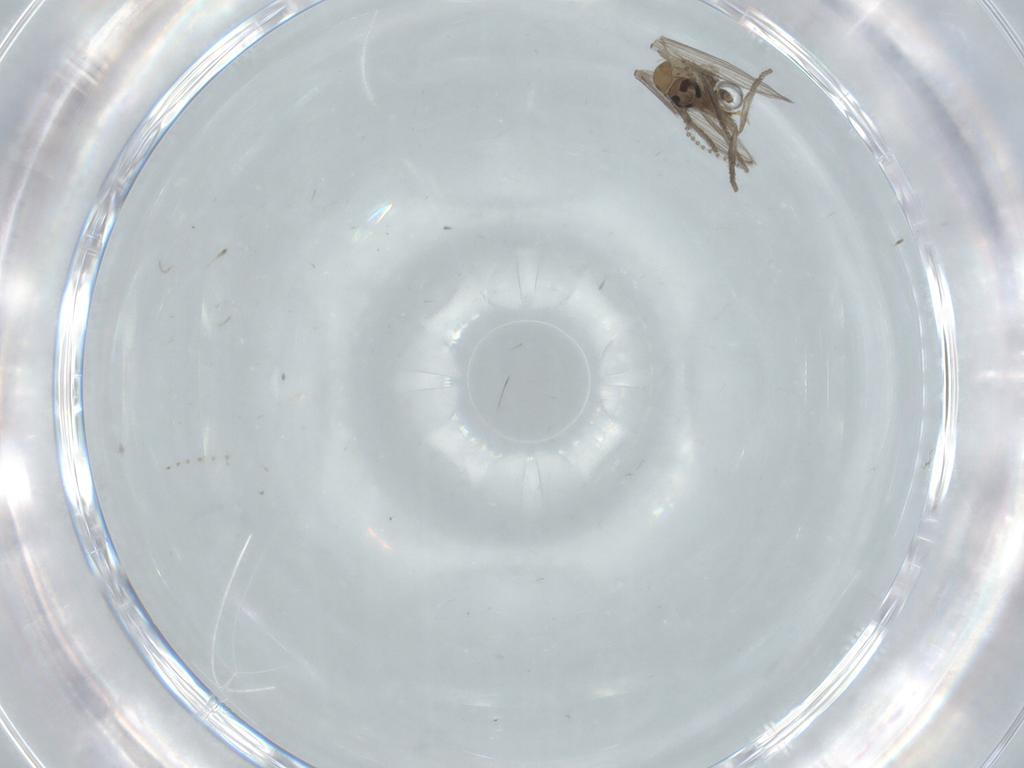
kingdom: Animalia
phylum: Arthropoda
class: Insecta
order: Diptera
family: Psychodidae
